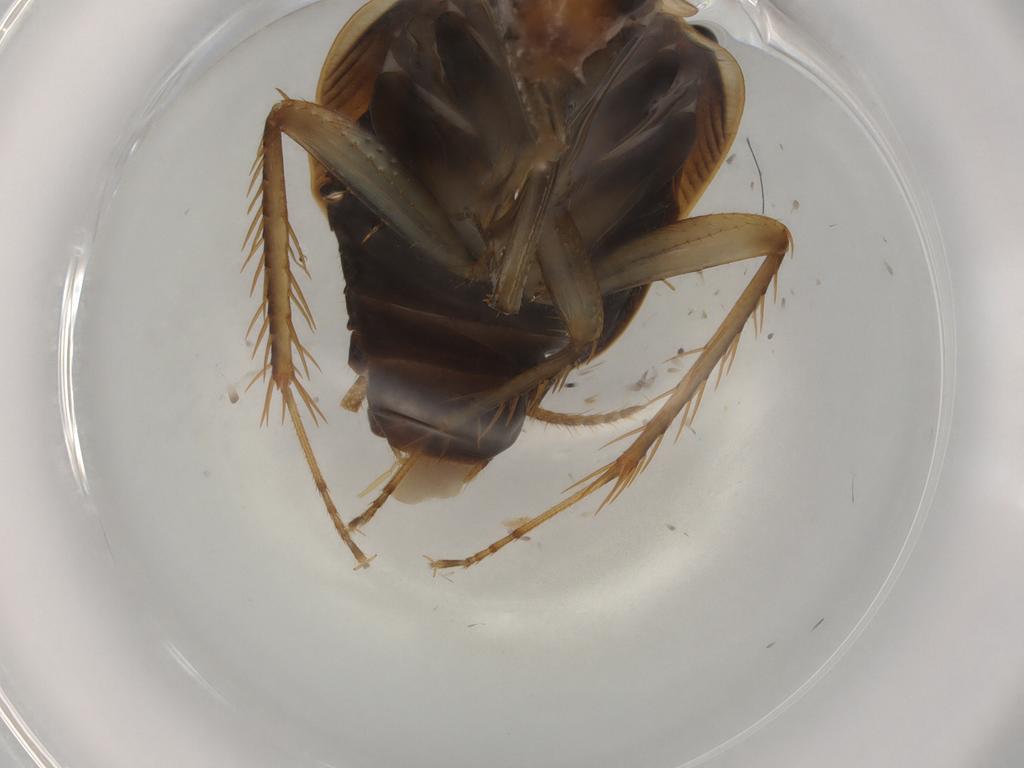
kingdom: Animalia
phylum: Arthropoda
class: Insecta
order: Blattodea
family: Ectobiidae
